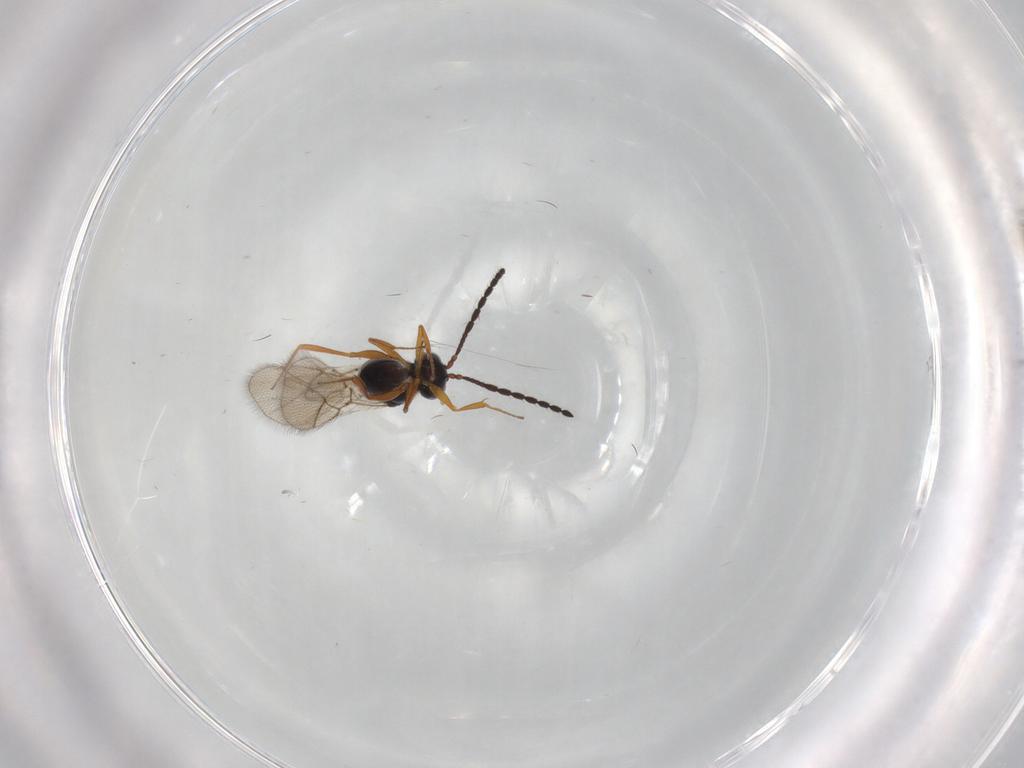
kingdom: Animalia
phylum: Arthropoda
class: Insecta
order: Hymenoptera
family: Figitidae
